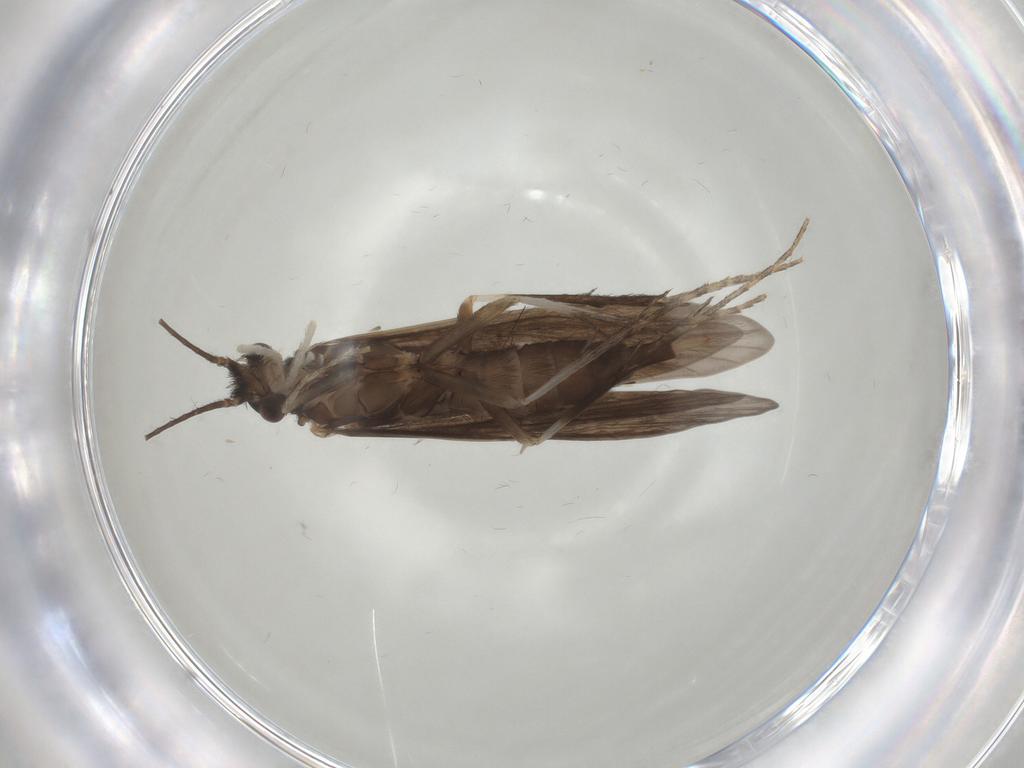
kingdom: Animalia
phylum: Arthropoda
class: Insecta
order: Trichoptera
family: Xiphocentronidae
